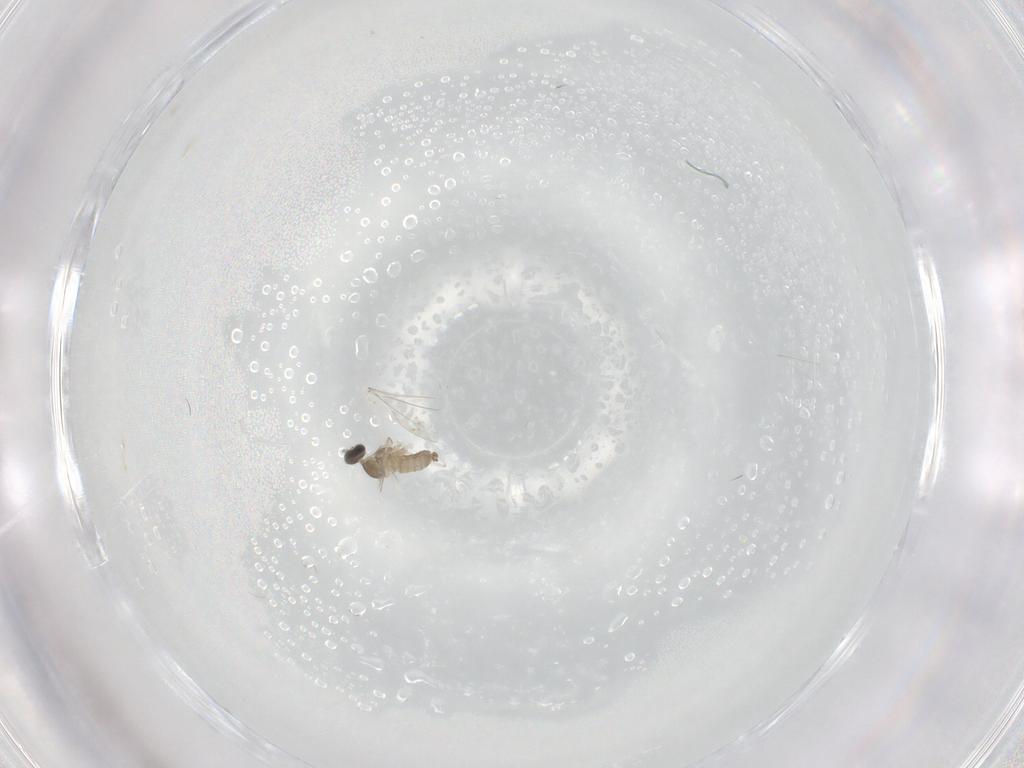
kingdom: Animalia
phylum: Arthropoda
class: Insecta
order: Diptera
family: Cecidomyiidae
